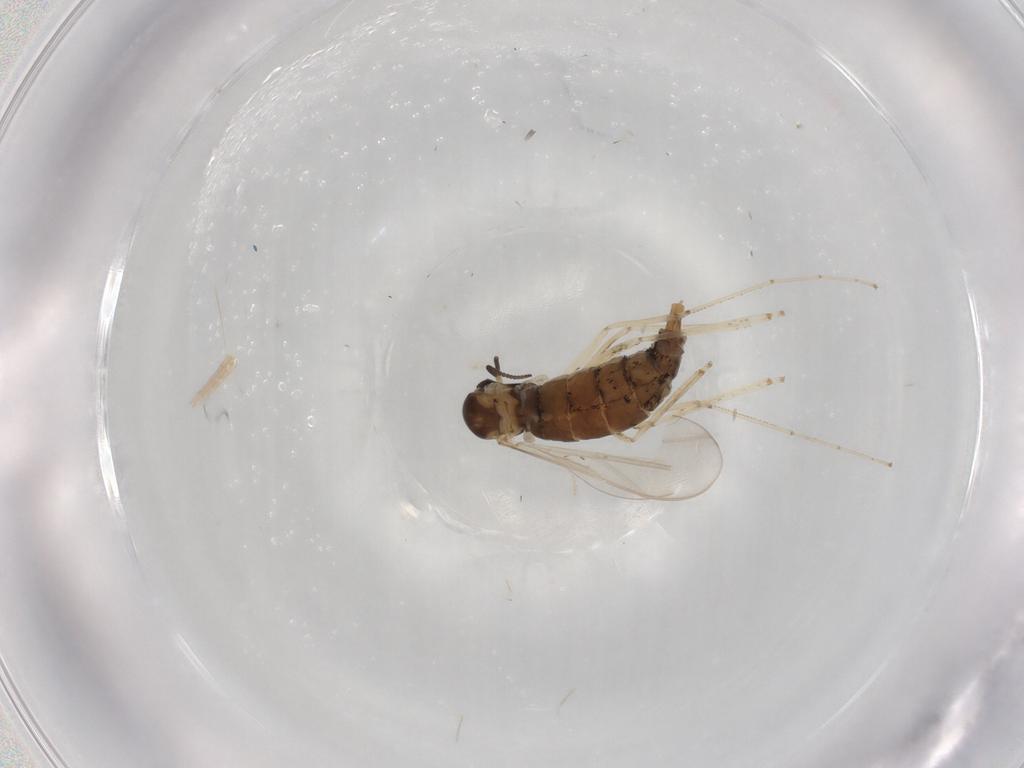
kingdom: Animalia
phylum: Arthropoda
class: Insecta
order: Diptera
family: Cecidomyiidae
